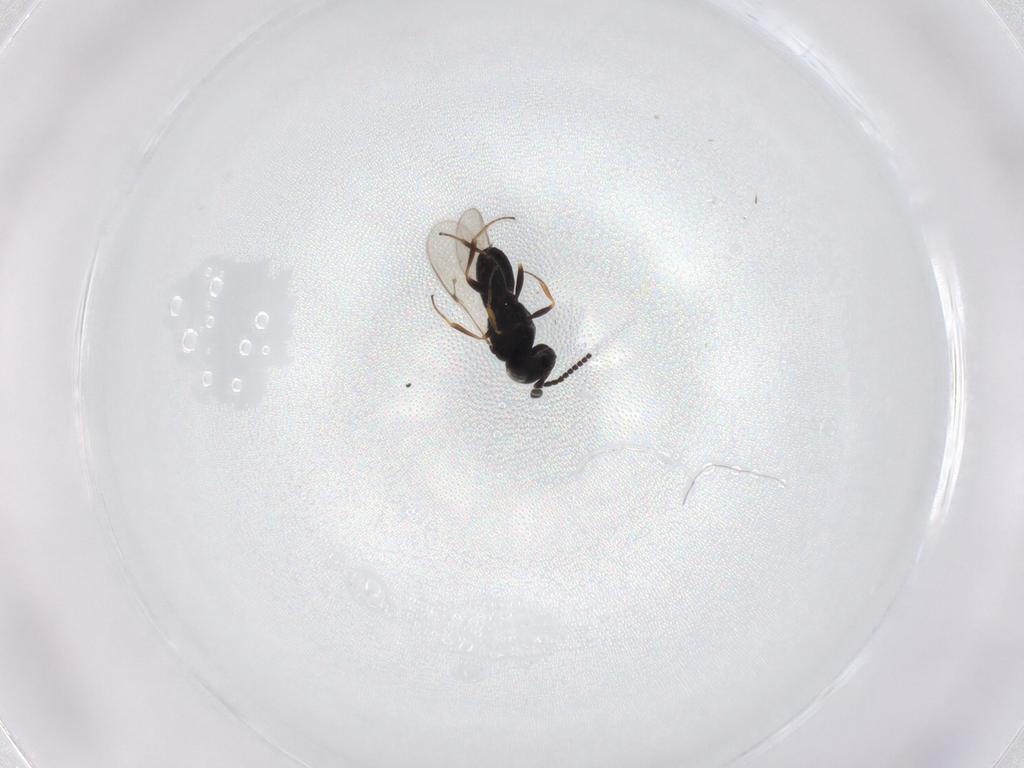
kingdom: Animalia
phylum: Arthropoda
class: Insecta
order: Hymenoptera
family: Scelionidae
